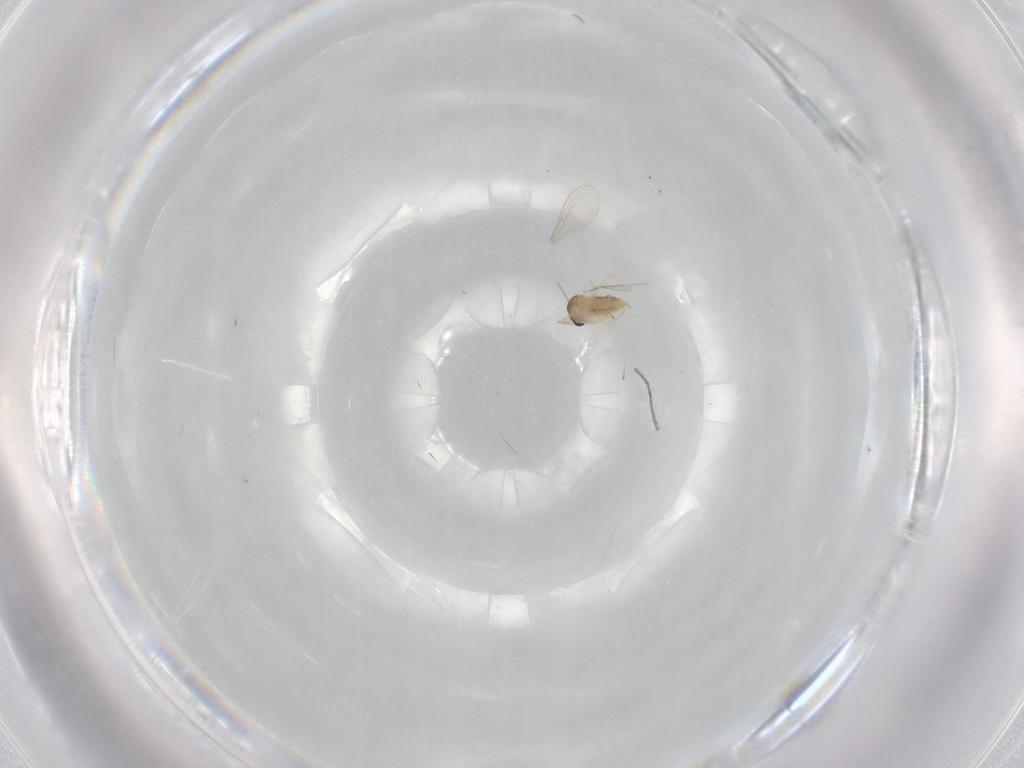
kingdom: Animalia
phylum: Arthropoda
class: Insecta
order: Diptera
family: Cecidomyiidae
